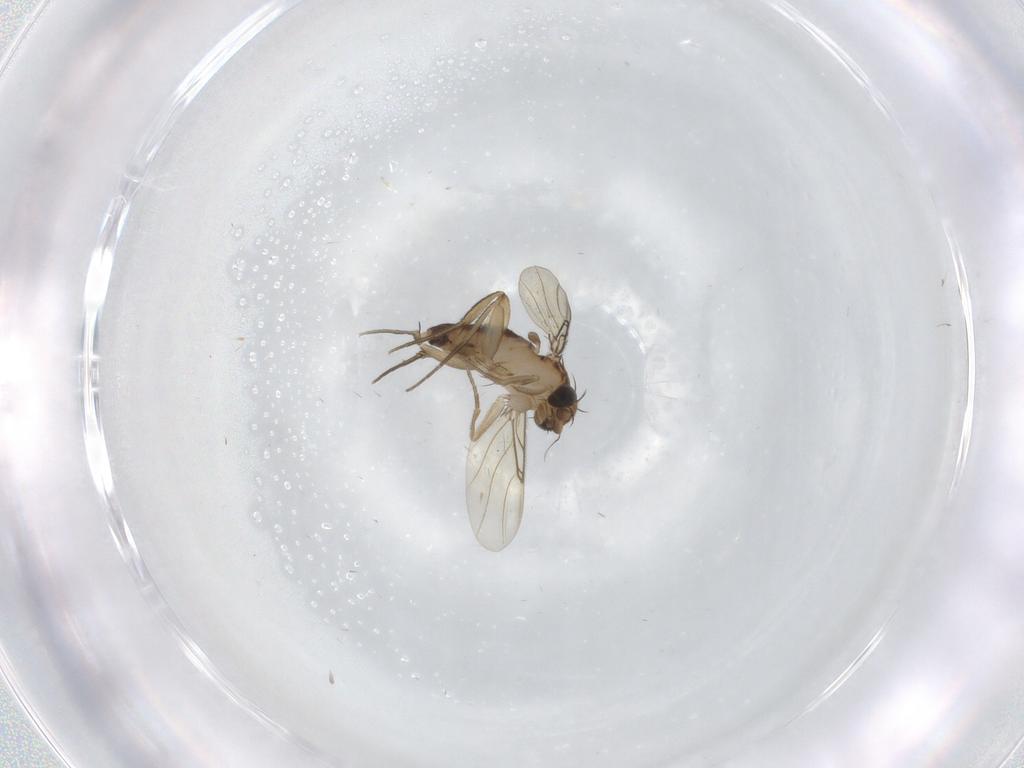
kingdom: Animalia
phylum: Arthropoda
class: Insecta
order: Diptera
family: Phoridae
